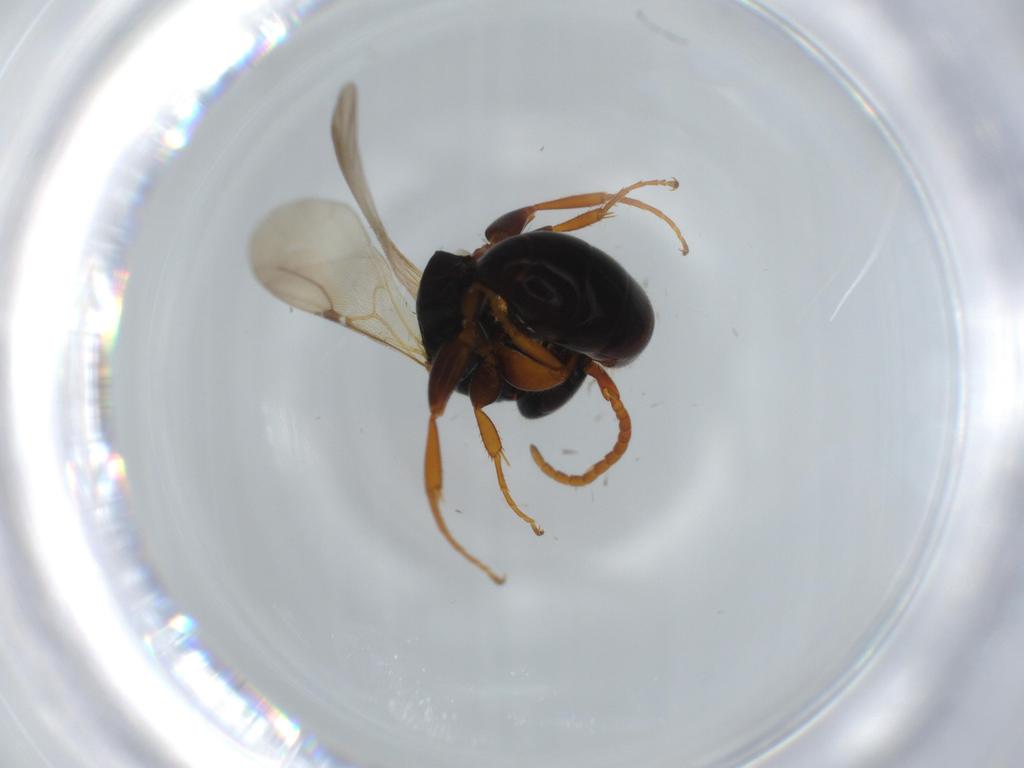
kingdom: Animalia
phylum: Arthropoda
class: Insecta
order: Hymenoptera
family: Bethylidae
